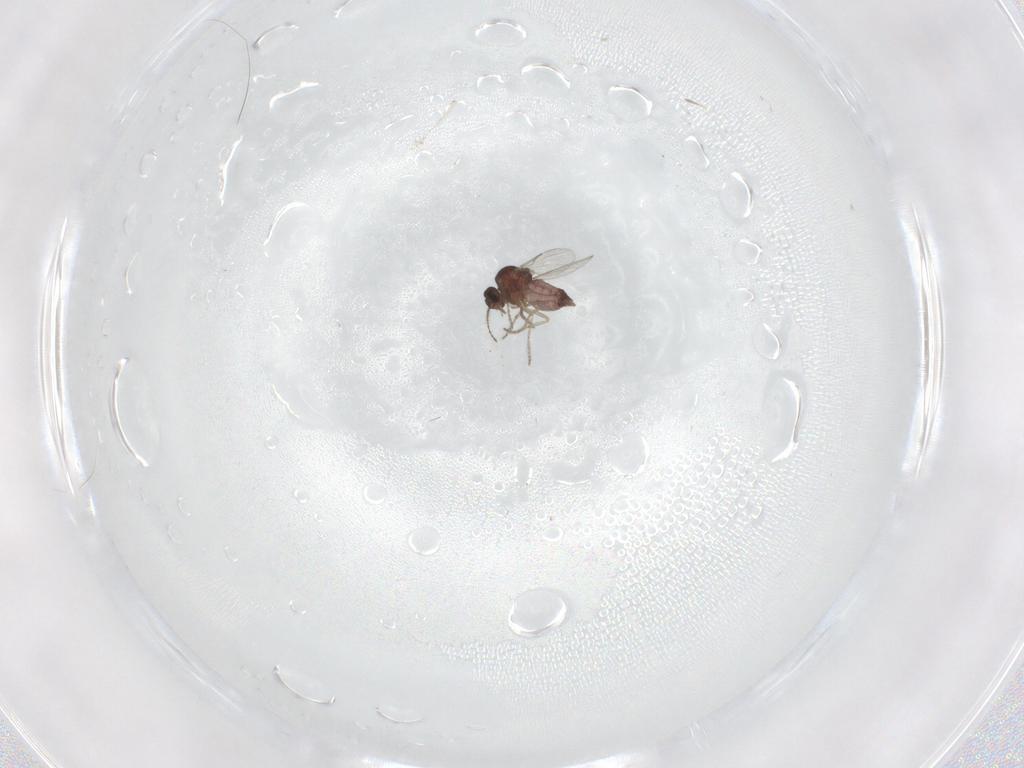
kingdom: Animalia
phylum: Arthropoda
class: Insecta
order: Diptera
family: Ceratopogonidae
